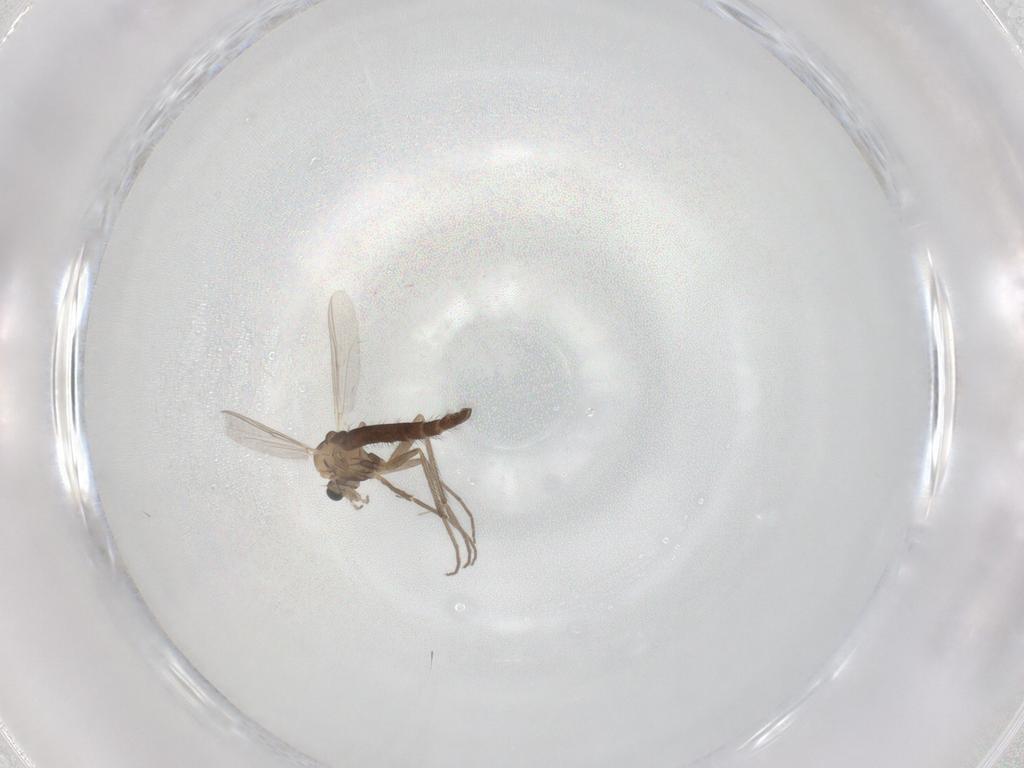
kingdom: Animalia
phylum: Arthropoda
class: Insecta
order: Diptera
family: Chironomidae
